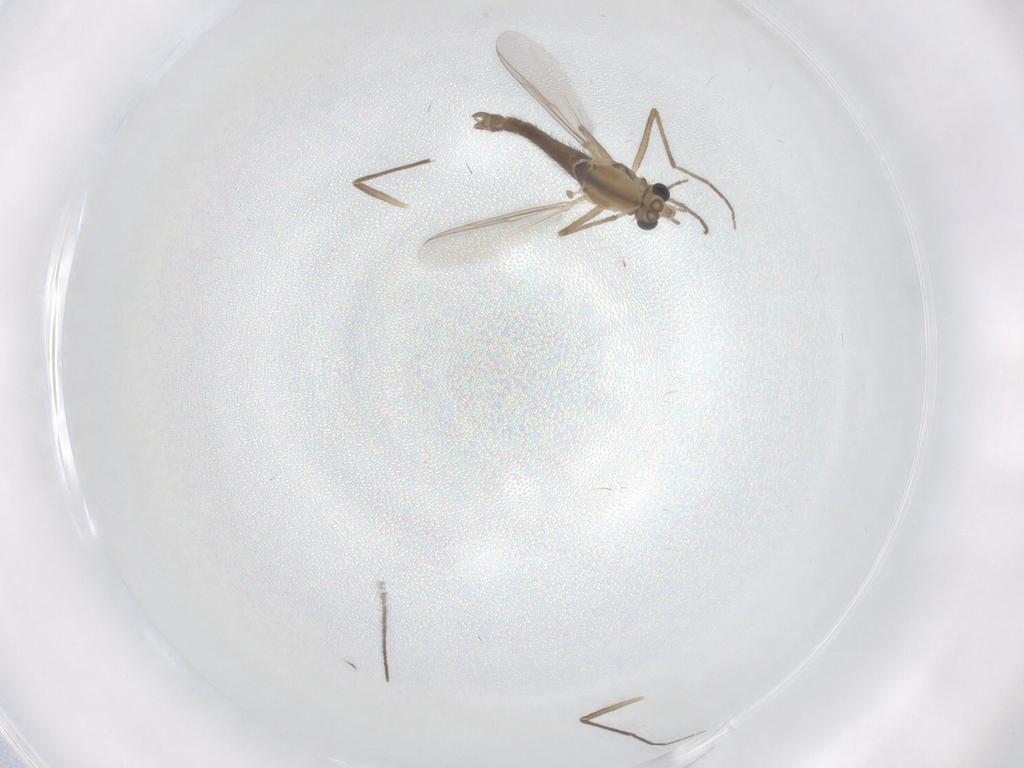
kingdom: Animalia
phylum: Arthropoda
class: Insecta
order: Diptera
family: Chironomidae
